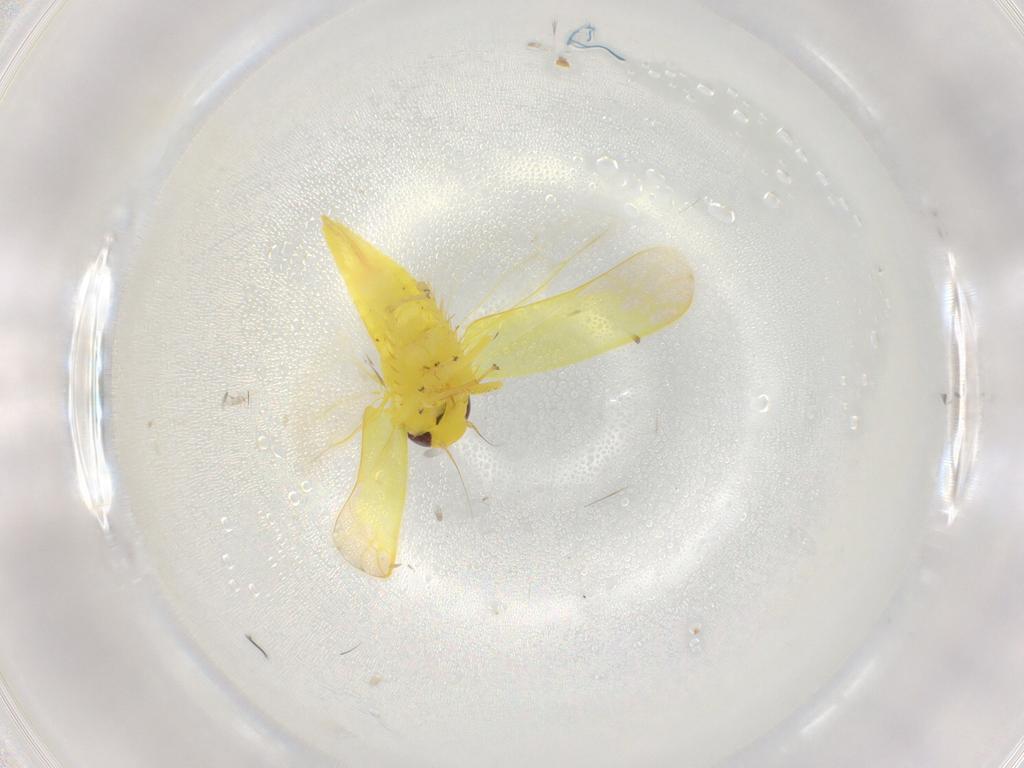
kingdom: Animalia
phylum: Arthropoda
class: Insecta
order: Hemiptera
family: Cicadellidae
